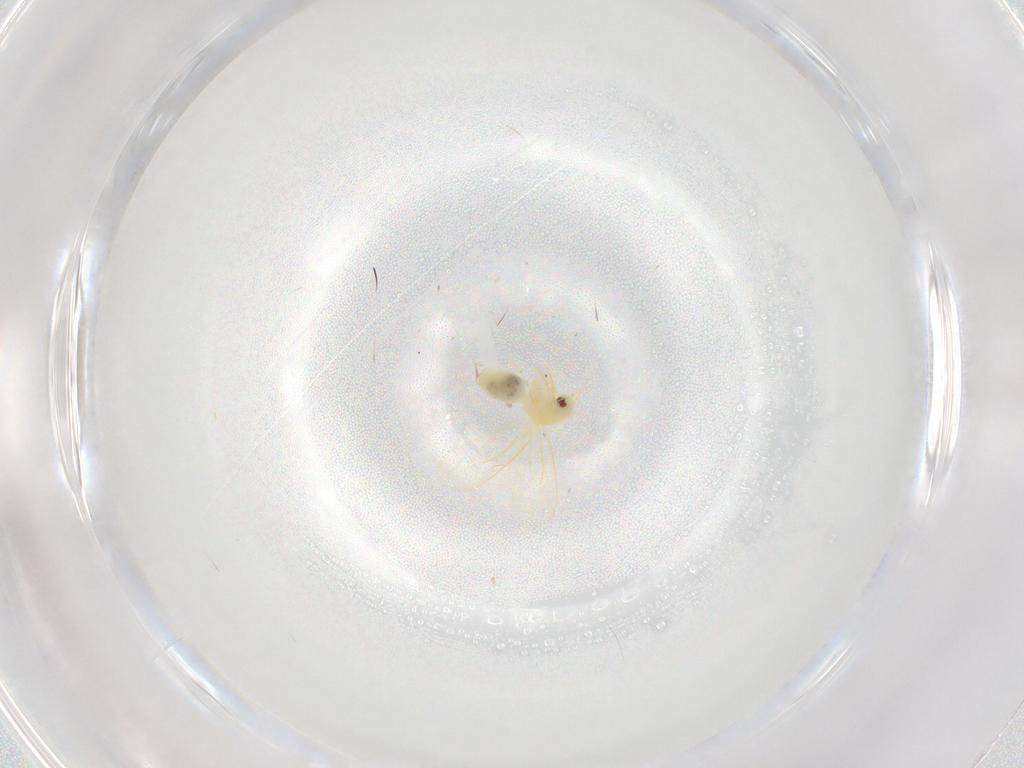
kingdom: Animalia
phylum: Arthropoda
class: Insecta
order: Hemiptera
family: Aleyrodidae
